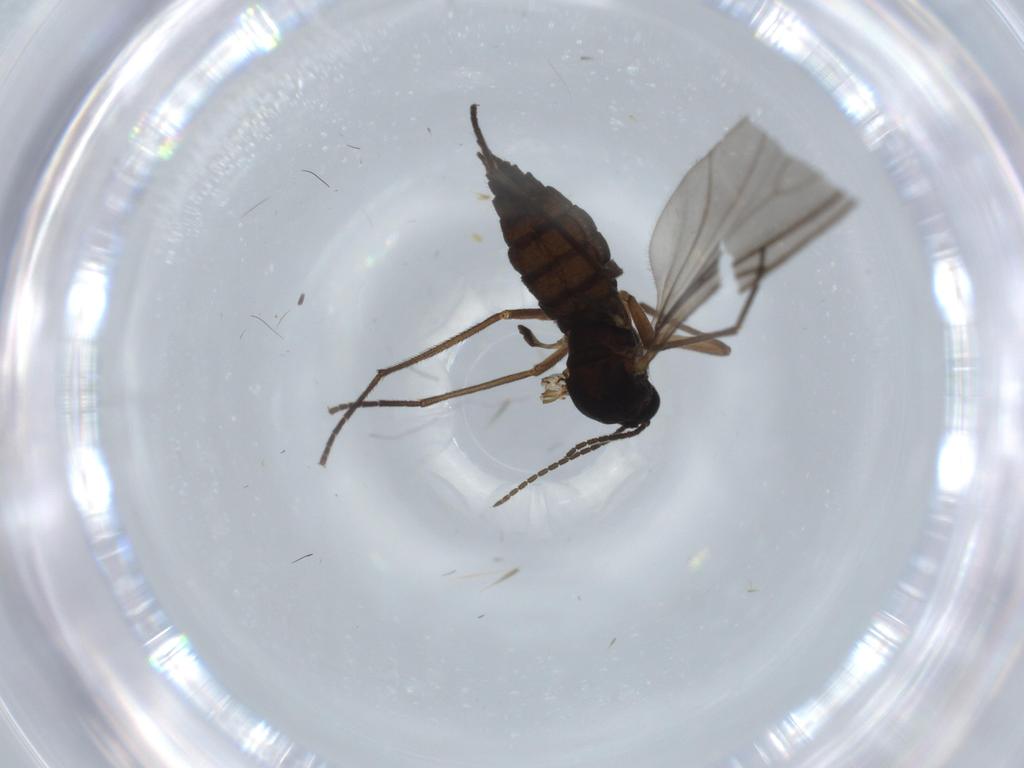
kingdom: Animalia
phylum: Arthropoda
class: Insecta
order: Diptera
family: Sciaridae
